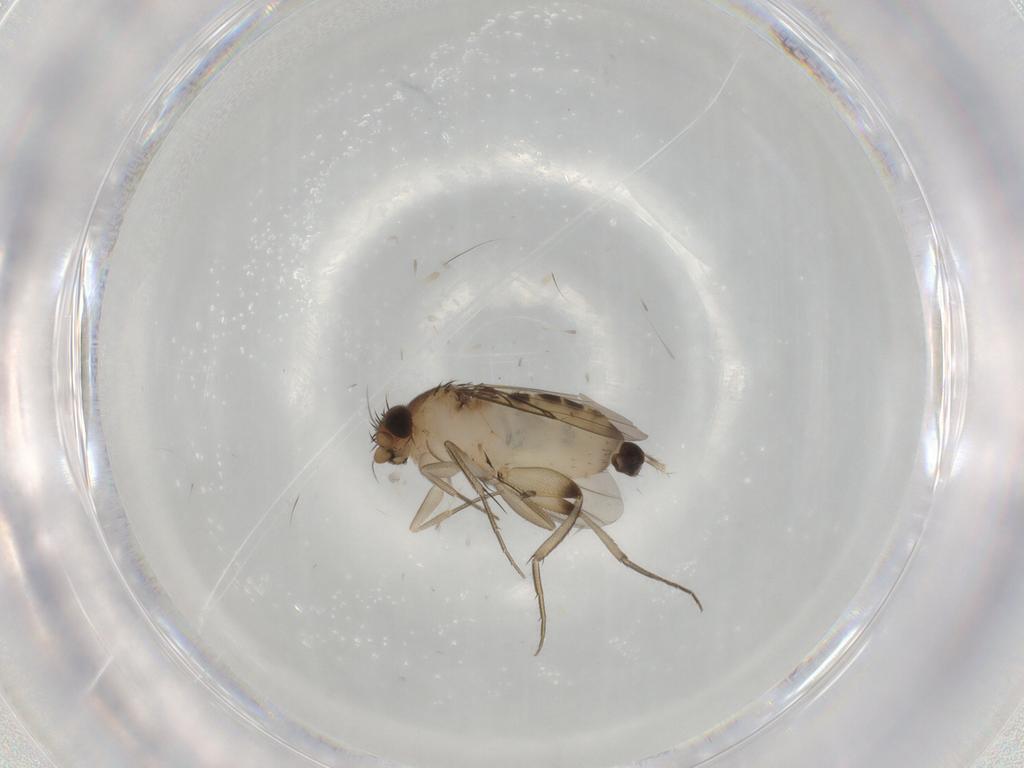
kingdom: Animalia
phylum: Arthropoda
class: Insecta
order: Diptera
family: Phoridae
